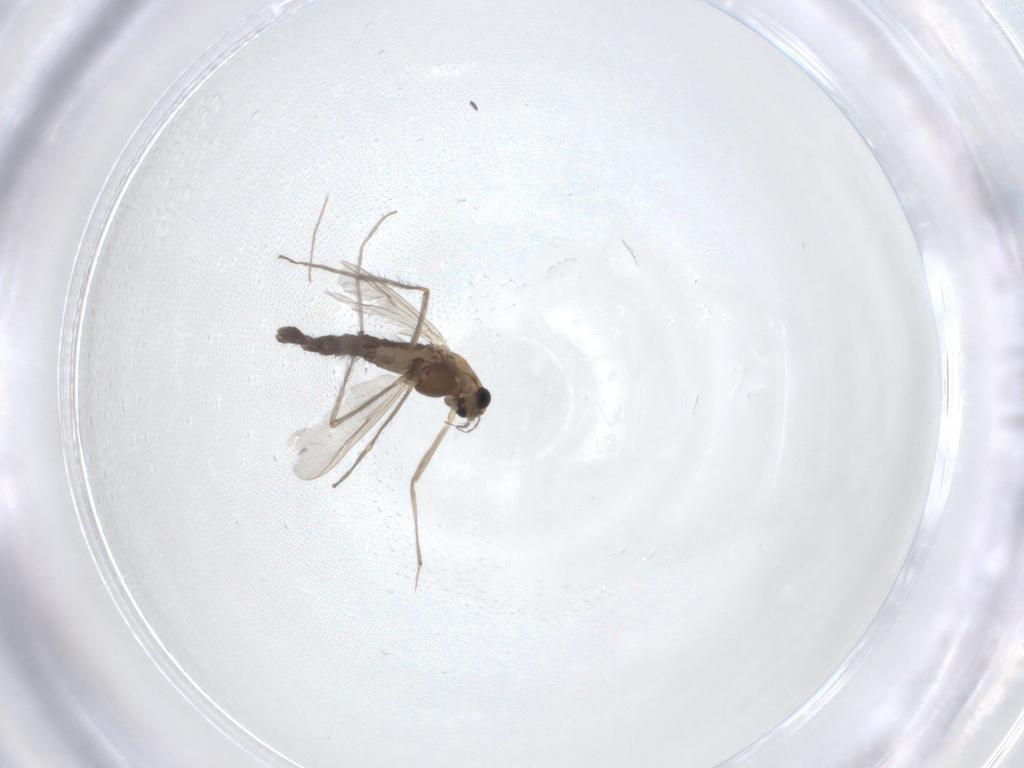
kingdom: Animalia
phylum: Arthropoda
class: Insecta
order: Diptera
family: Chironomidae
